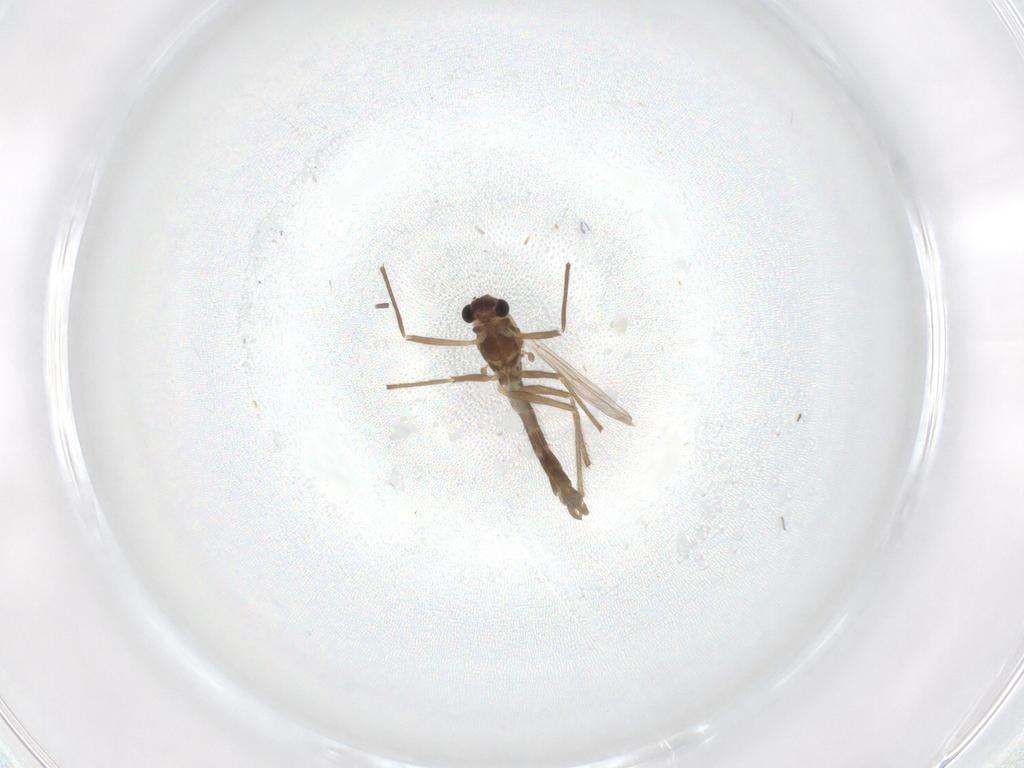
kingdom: Animalia
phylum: Arthropoda
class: Insecta
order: Diptera
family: Chironomidae
